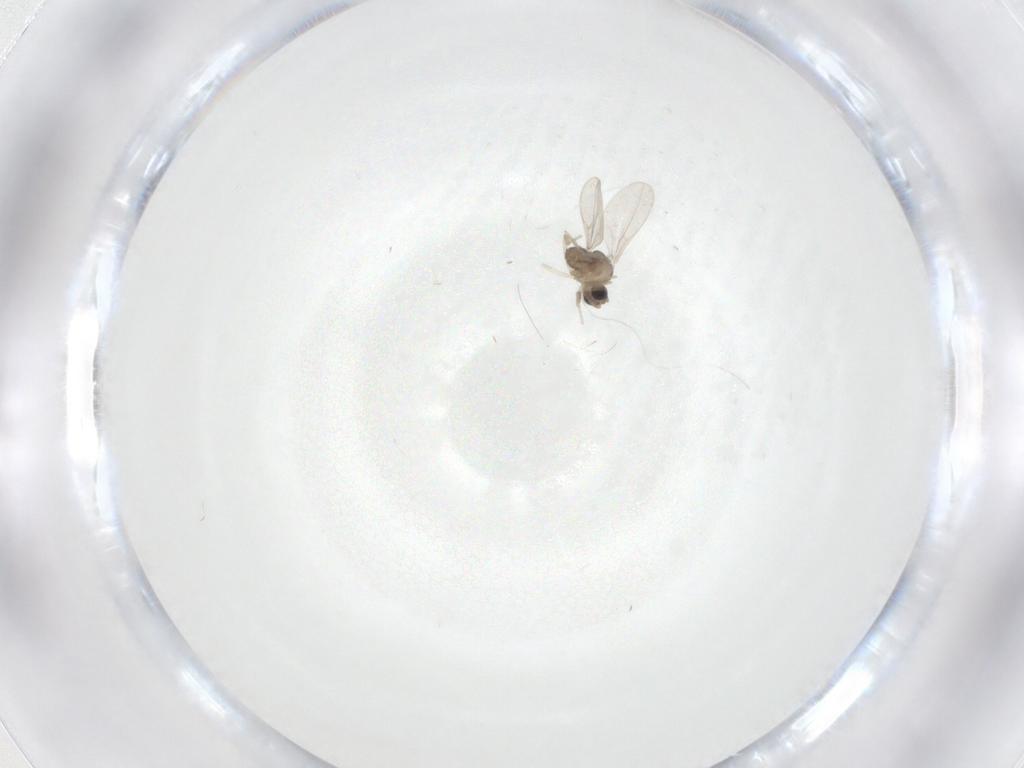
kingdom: Animalia
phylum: Arthropoda
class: Insecta
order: Diptera
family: Cecidomyiidae
